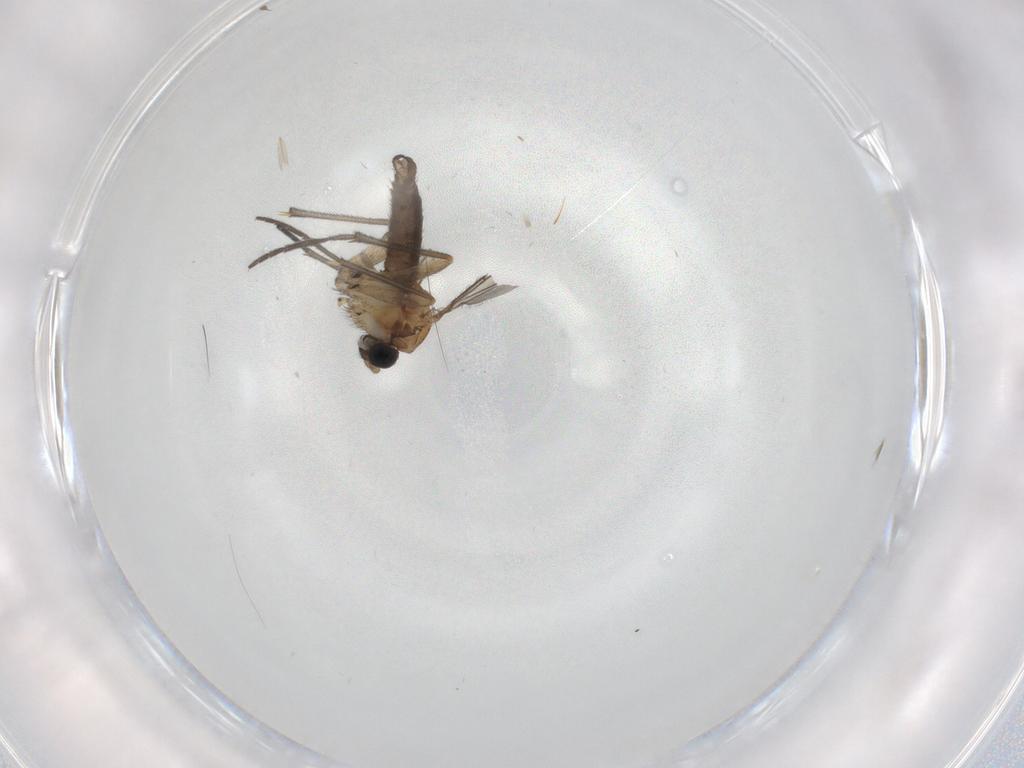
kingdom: Animalia
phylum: Arthropoda
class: Insecta
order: Diptera
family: Sciaridae
